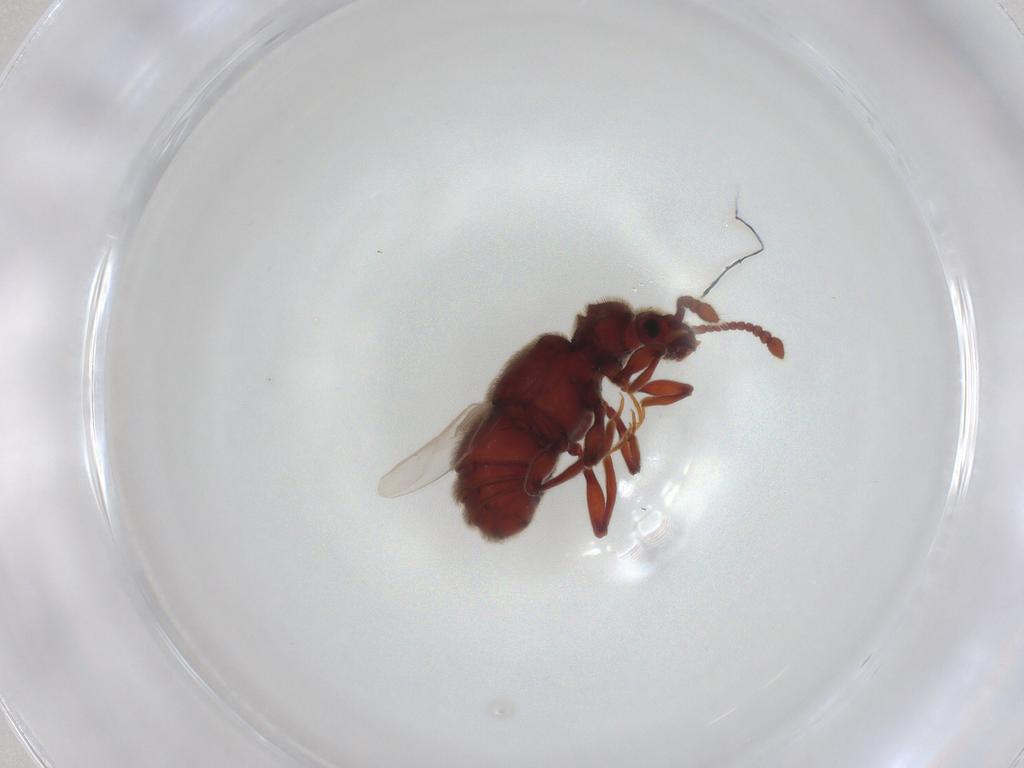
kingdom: Animalia
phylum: Arthropoda
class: Insecta
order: Coleoptera
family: Staphylinidae
